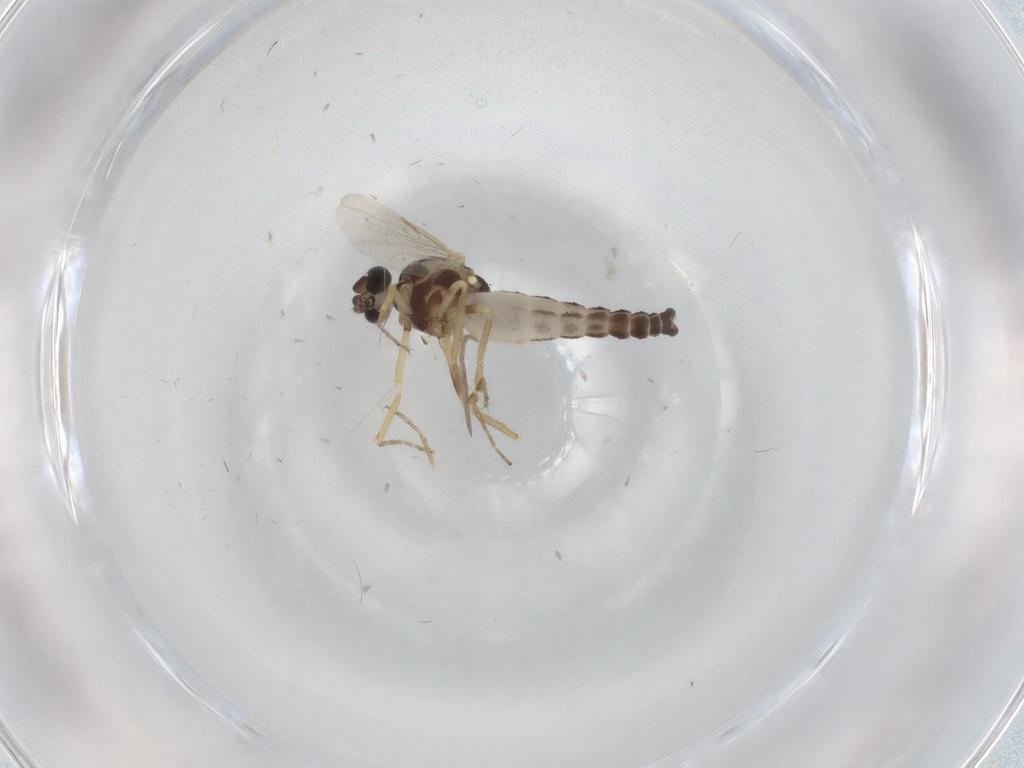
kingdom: Animalia
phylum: Arthropoda
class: Insecta
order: Diptera
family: Ceratopogonidae
